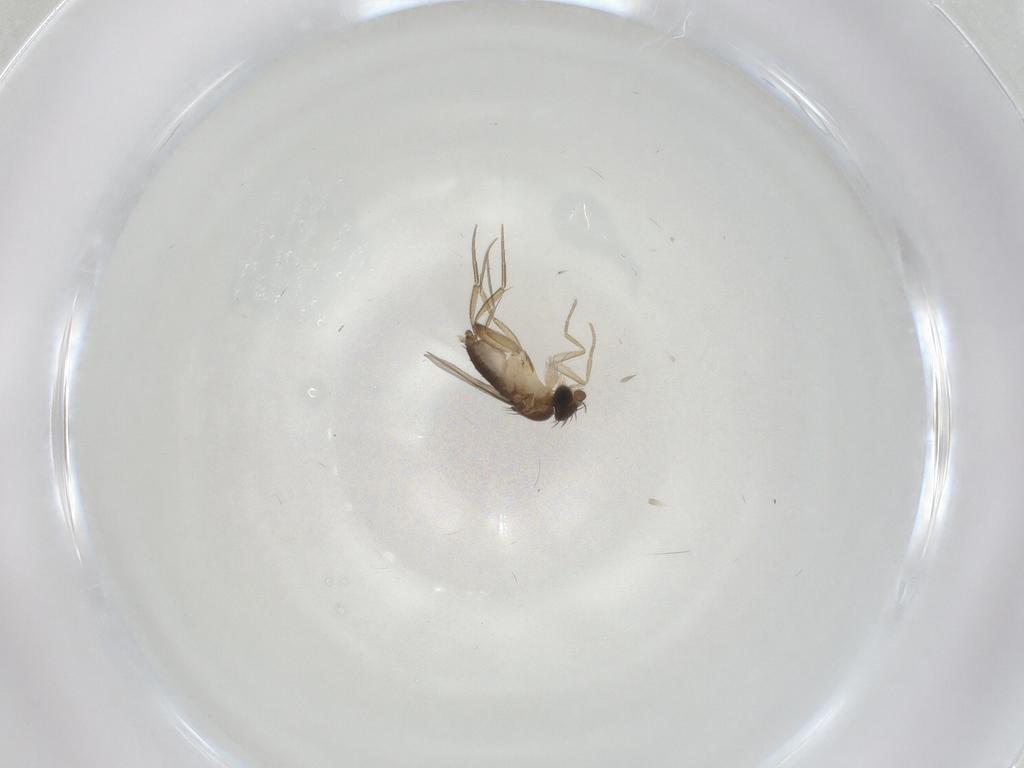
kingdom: Animalia
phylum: Arthropoda
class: Insecta
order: Diptera
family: Phoridae
